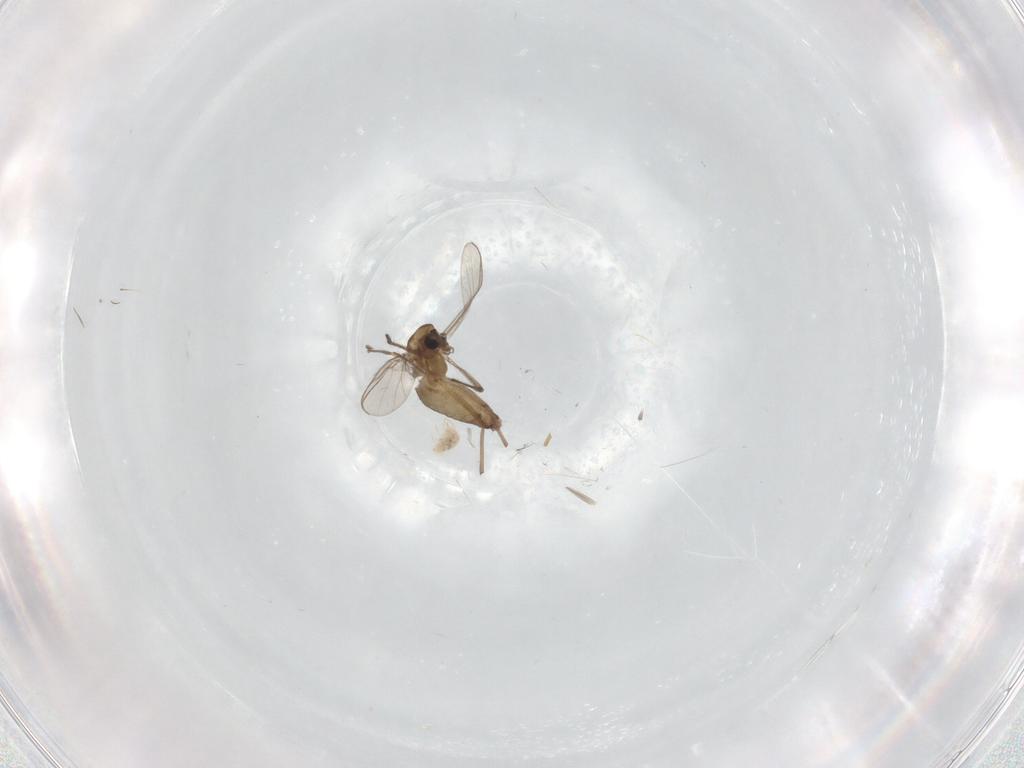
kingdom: Animalia
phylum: Arthropoda
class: Insecta
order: Diptera
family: Chironomidae
